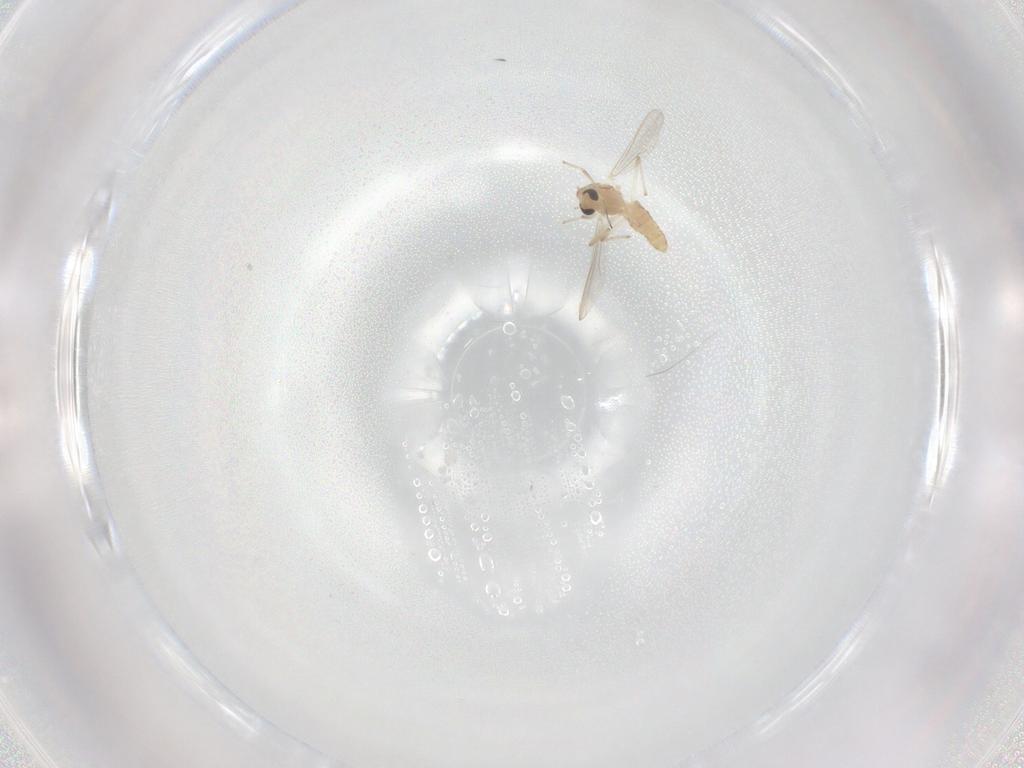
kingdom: Animalia
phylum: Arthropoda
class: Insecta
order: Diptera
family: Chironomidae
